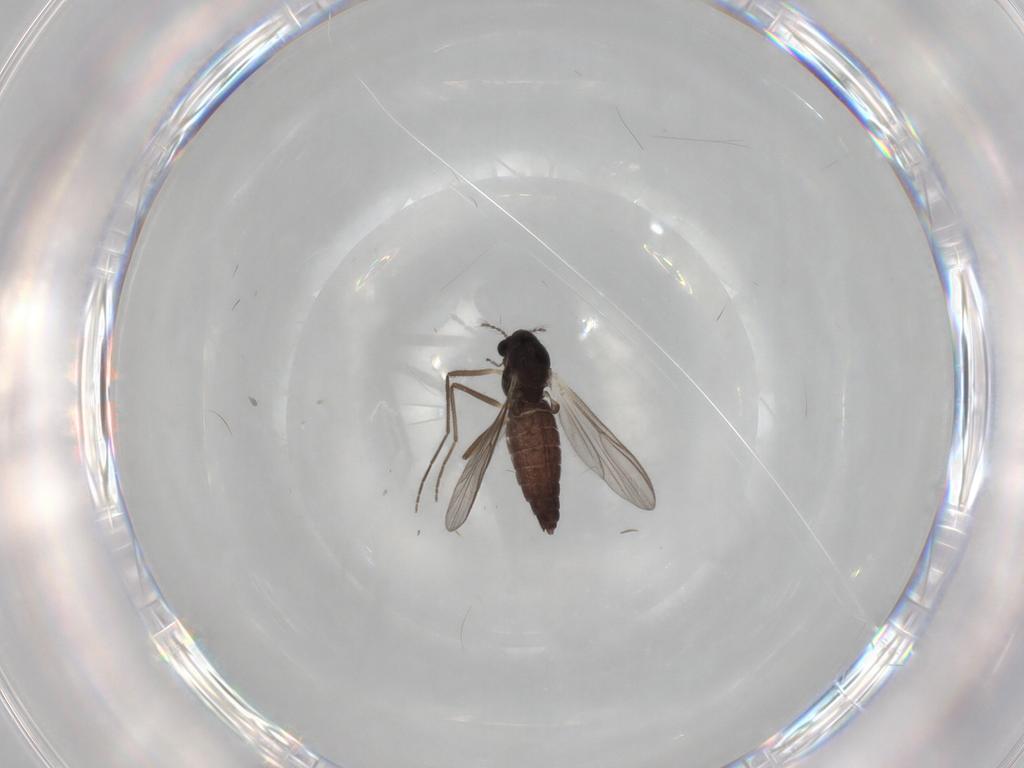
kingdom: Animalia
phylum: Arthropoda
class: Insecta
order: Diptera
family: Chironomidae
